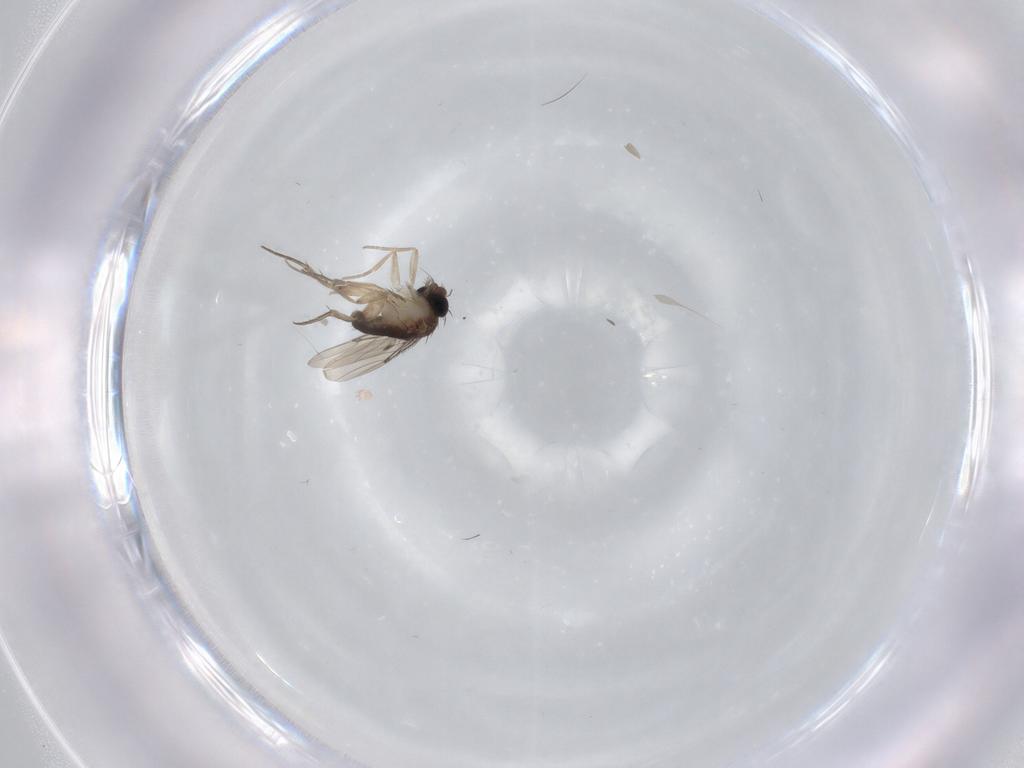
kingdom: Animalia
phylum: Arthropoda
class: Insecta
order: Diptera
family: Phoridae
